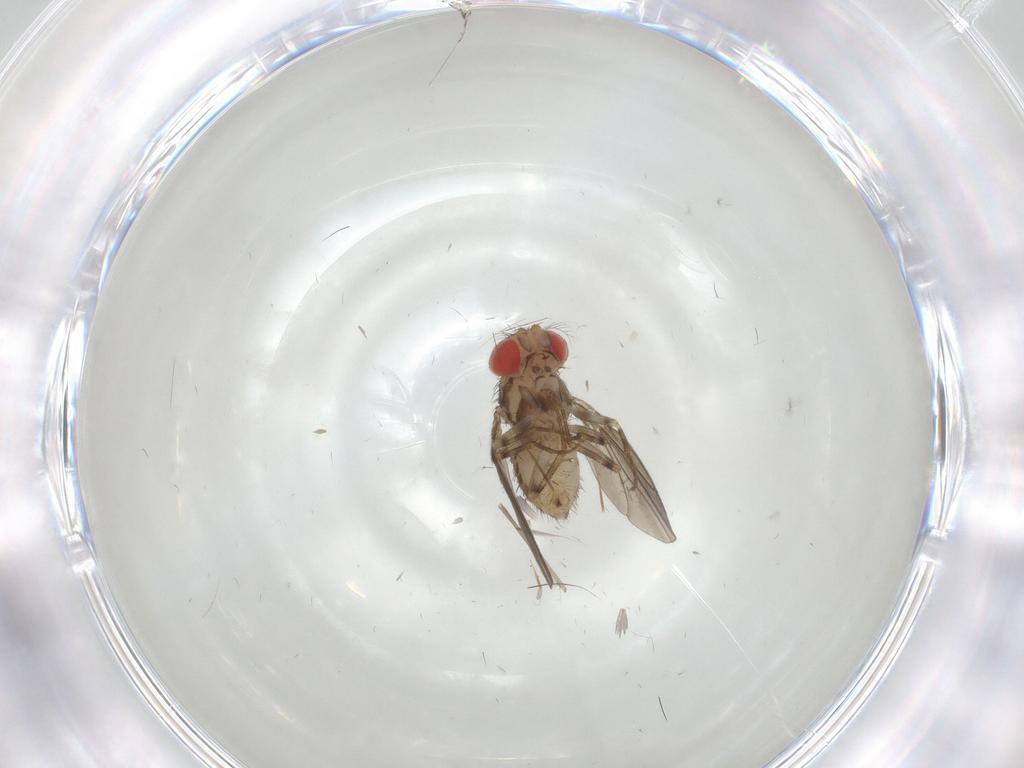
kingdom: Animalia
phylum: Arthropoda
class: Insecta
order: Diptera
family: Drosophilidae
